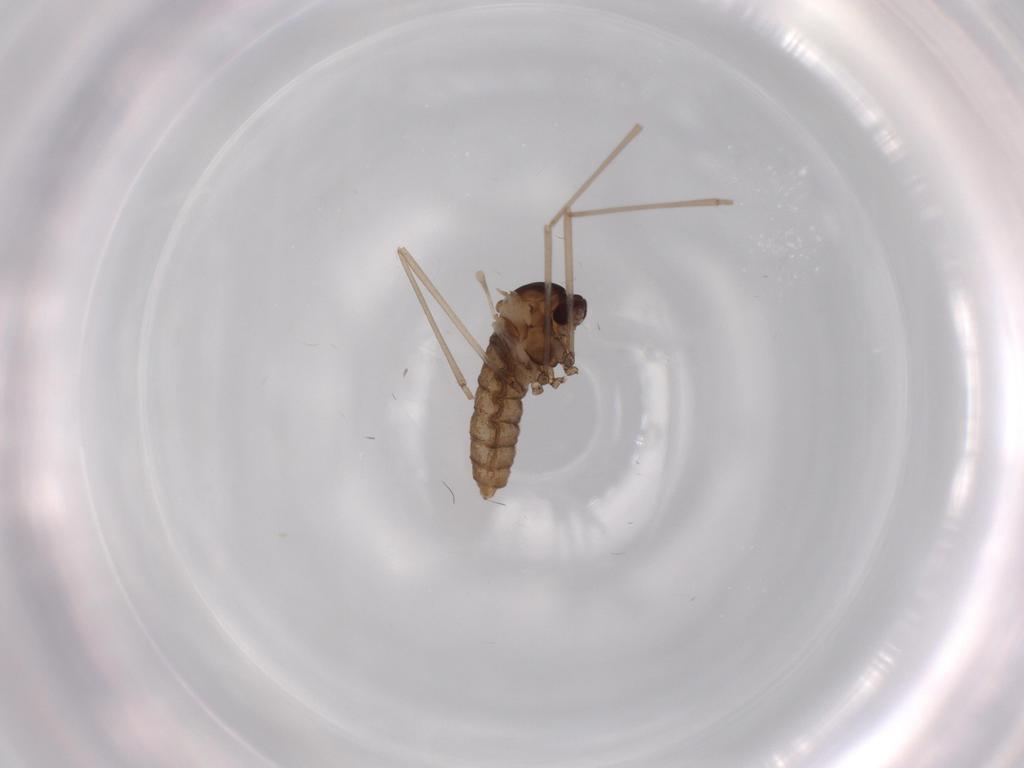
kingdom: Animalia
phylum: Arthropoda
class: Insecta
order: Diptera
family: Cecidomyiidae
